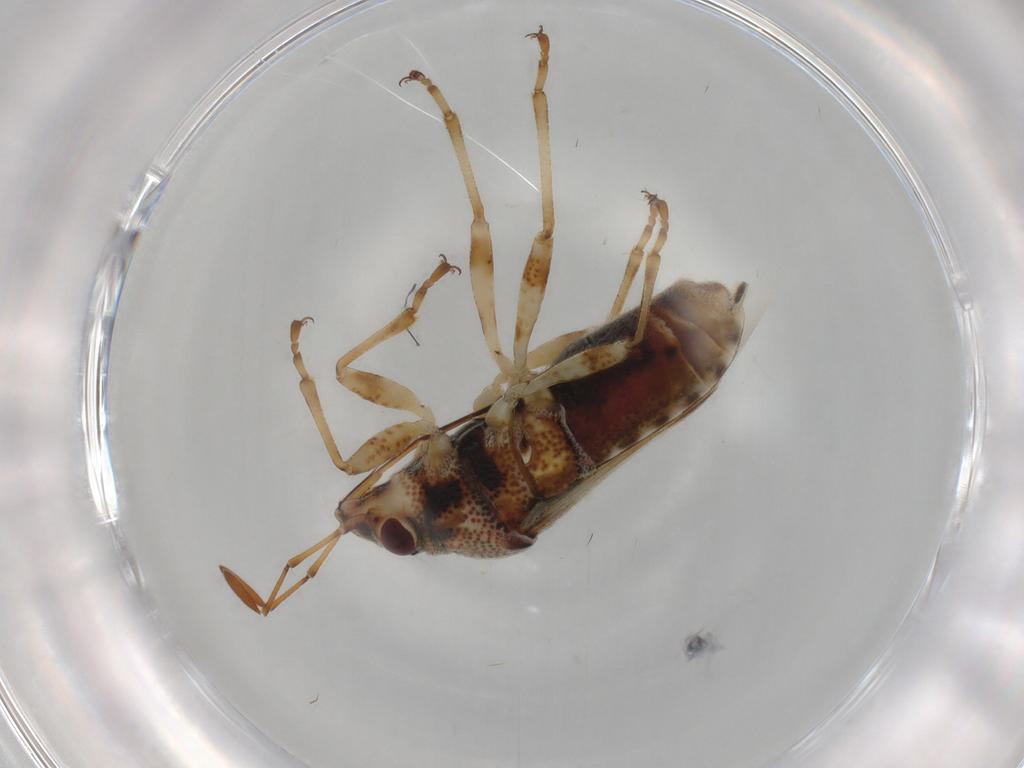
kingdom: Animalia
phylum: Arthropoda
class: Insecta
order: Hemiptera
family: Lygaeidae
